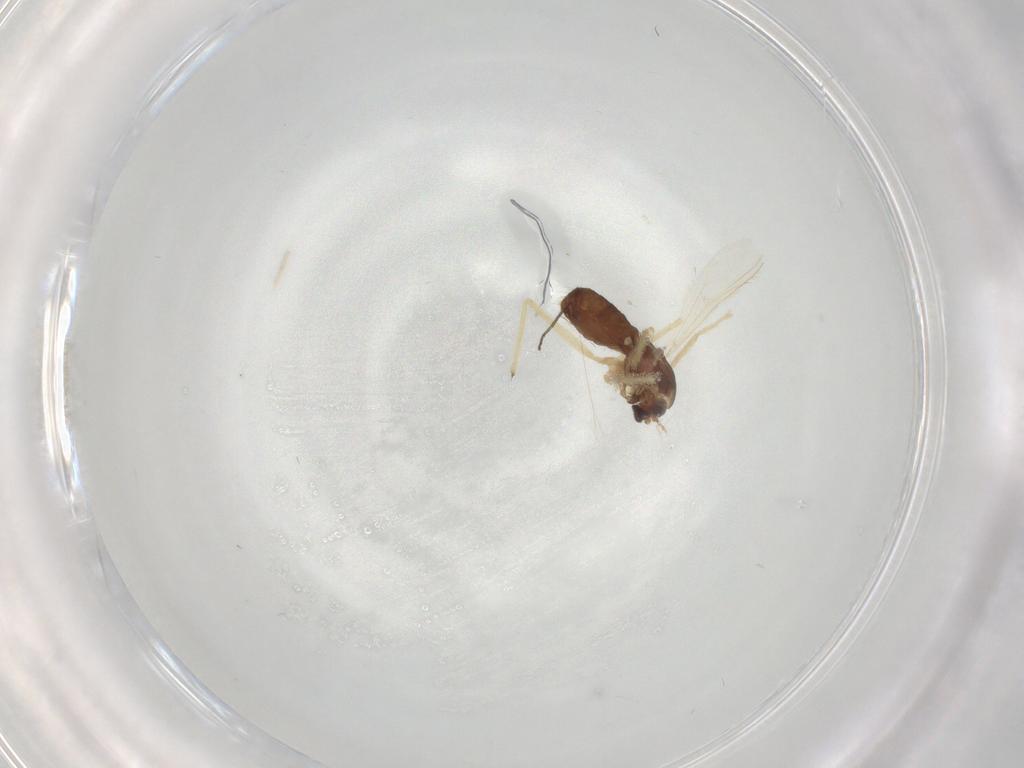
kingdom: Animalia
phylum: Arthropoda
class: Insecta
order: Diptera
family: Chironomidae
